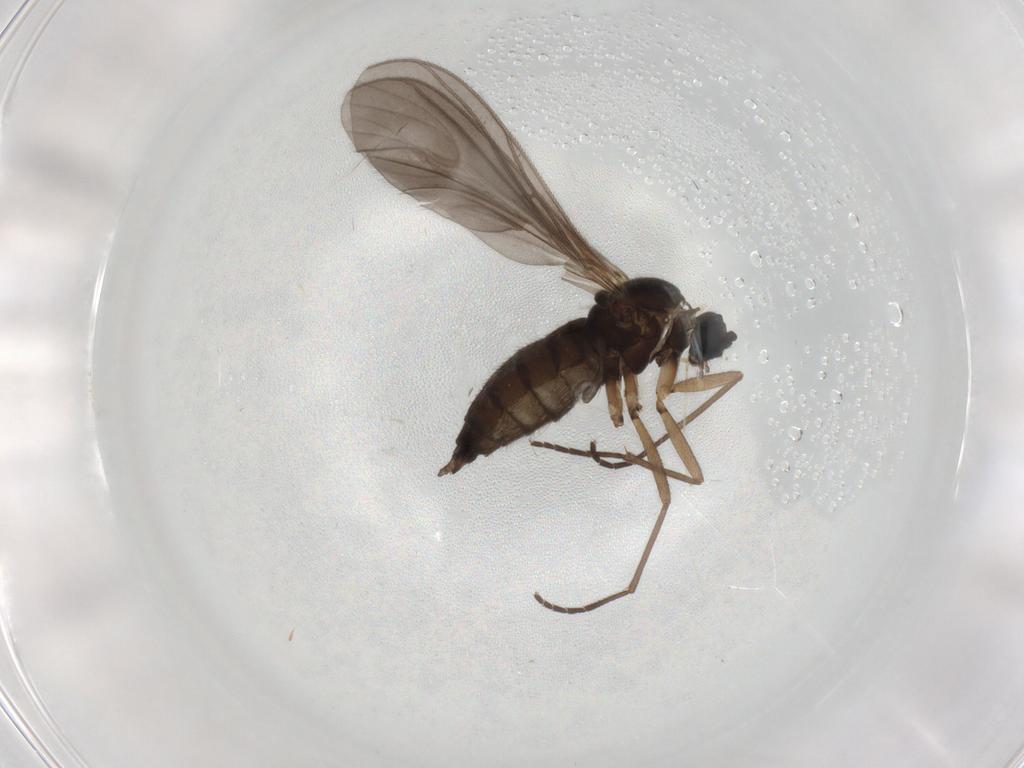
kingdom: Animalia
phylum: Arthropoda
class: Insecta
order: Diptera
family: Sciaridae
